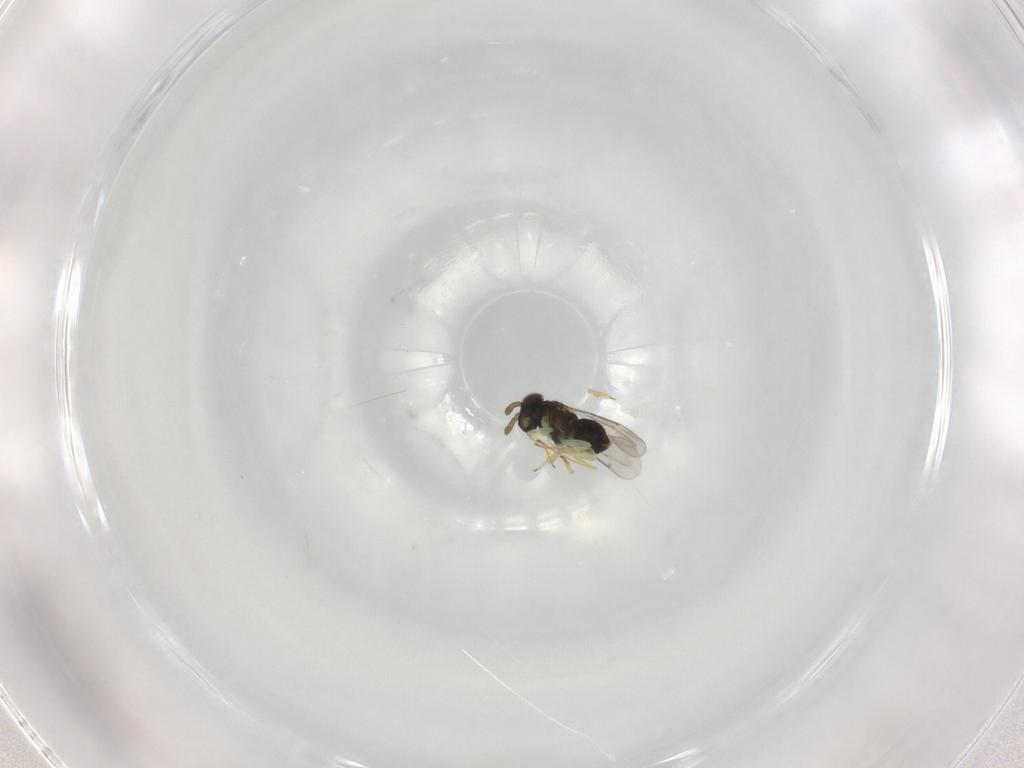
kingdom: Animalia
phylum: Arthropoda
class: Insecta
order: Hymenoptera
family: Aphelinidae
